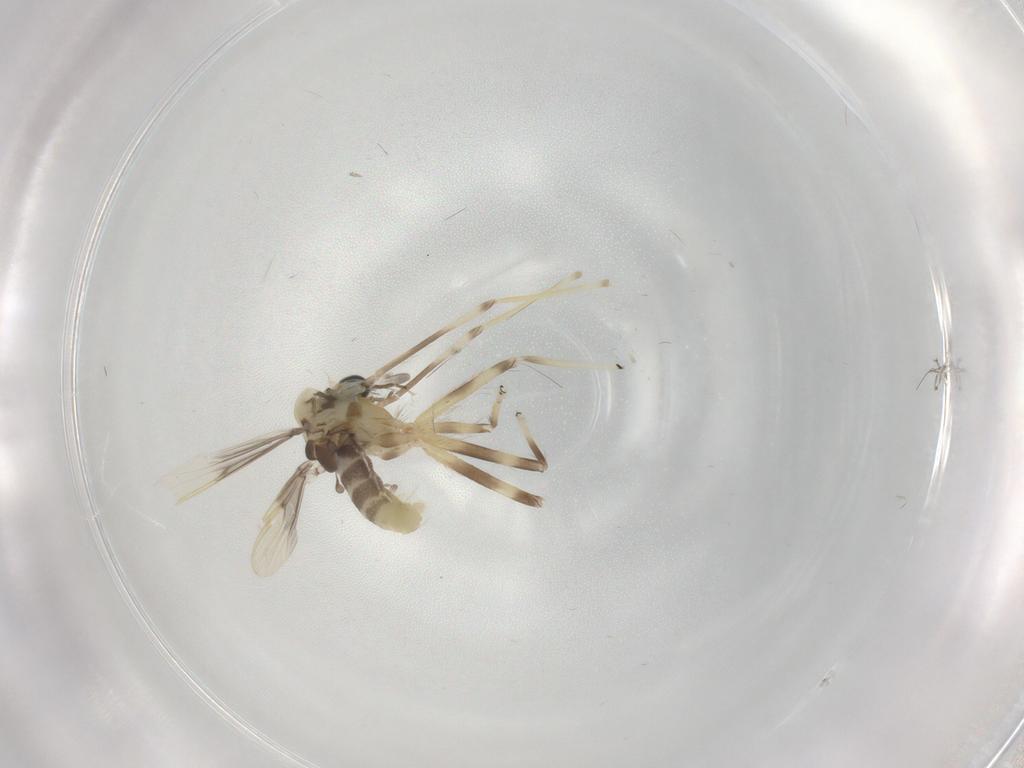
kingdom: Animalia
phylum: Arthropoda
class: Insecta
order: Diptera
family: Chironomidae
